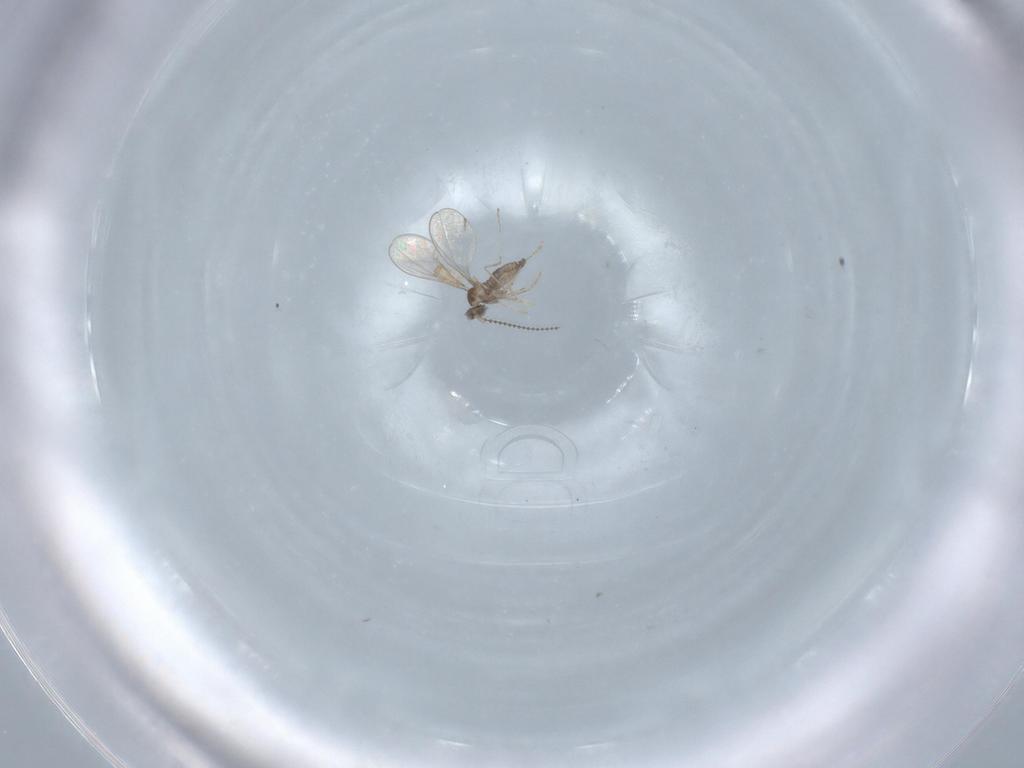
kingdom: Animalia
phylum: Arthropoda
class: Insecta
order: Diptera
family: Cecidomyiidae
